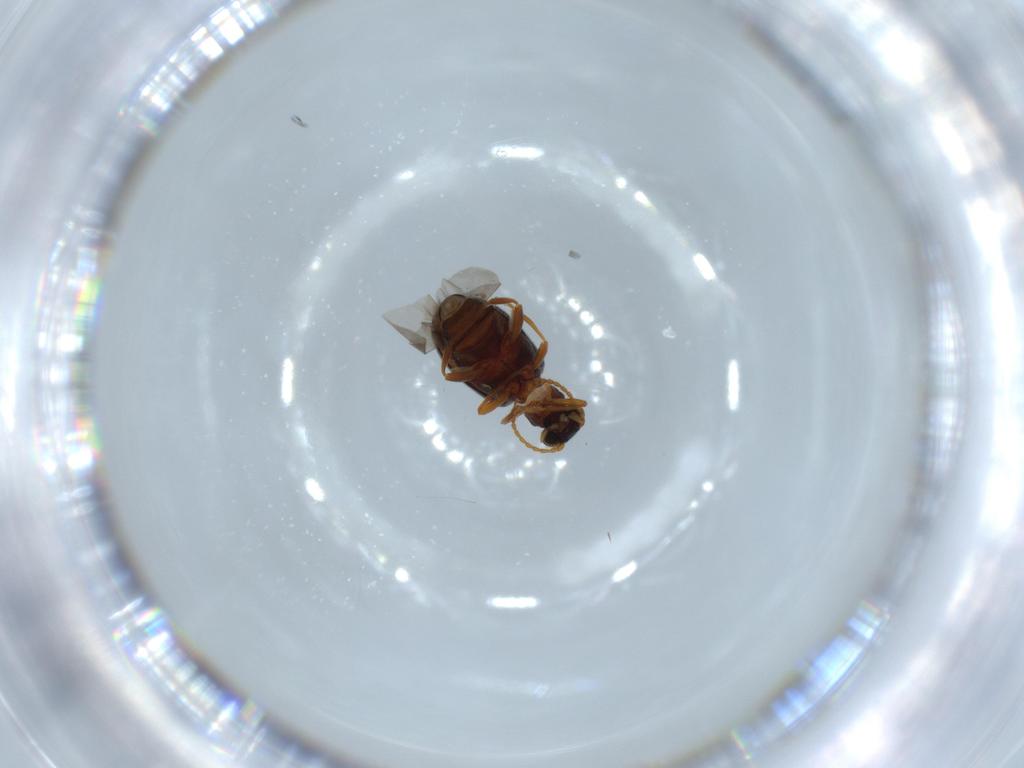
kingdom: Animalia
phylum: Arthropoda
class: Insecta
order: Coleoptera
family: Aderidae
